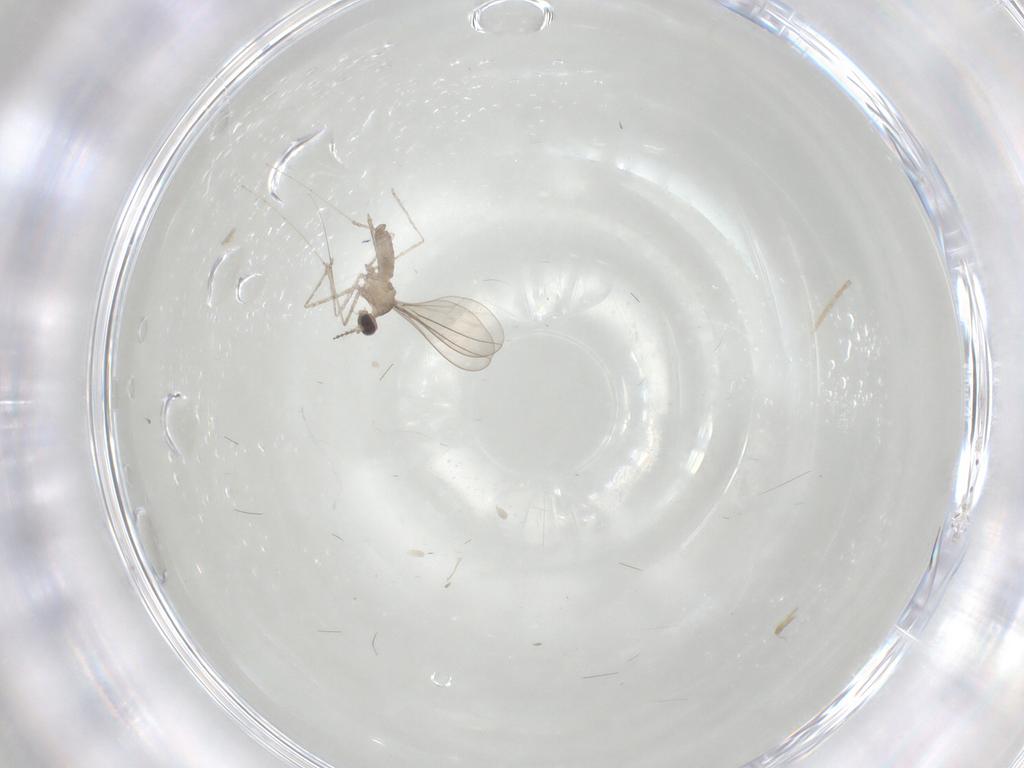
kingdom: Animalia
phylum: Arthropoda
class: Insecta
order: Diptera
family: Cecidomyiidae
